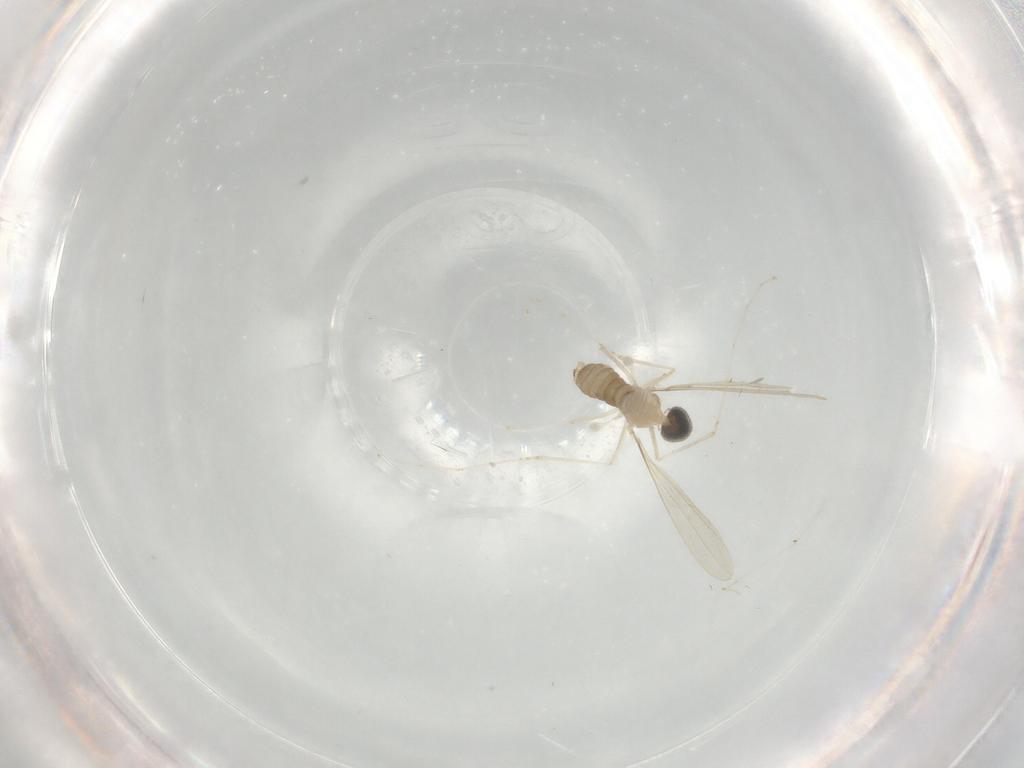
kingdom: Animalia
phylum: Arthropoda
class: Insecta
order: Diptera
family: Cecidomyiidae
